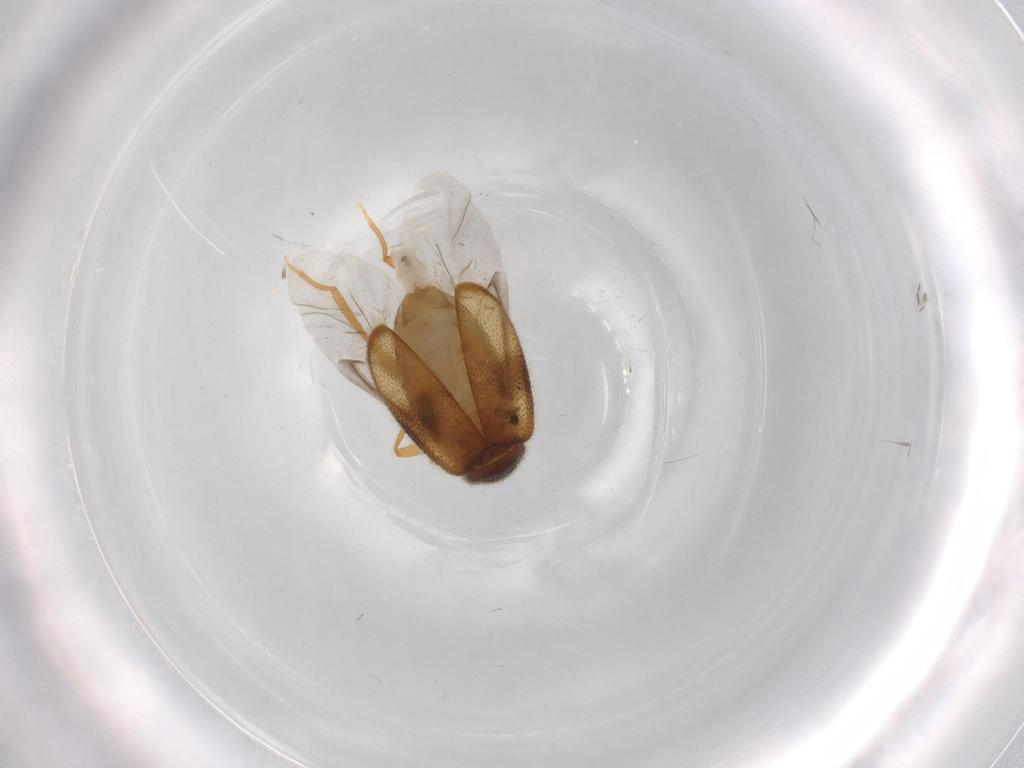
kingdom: Animalia
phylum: Arthropoda
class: Insecta
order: Coleoptera
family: Aderidae
